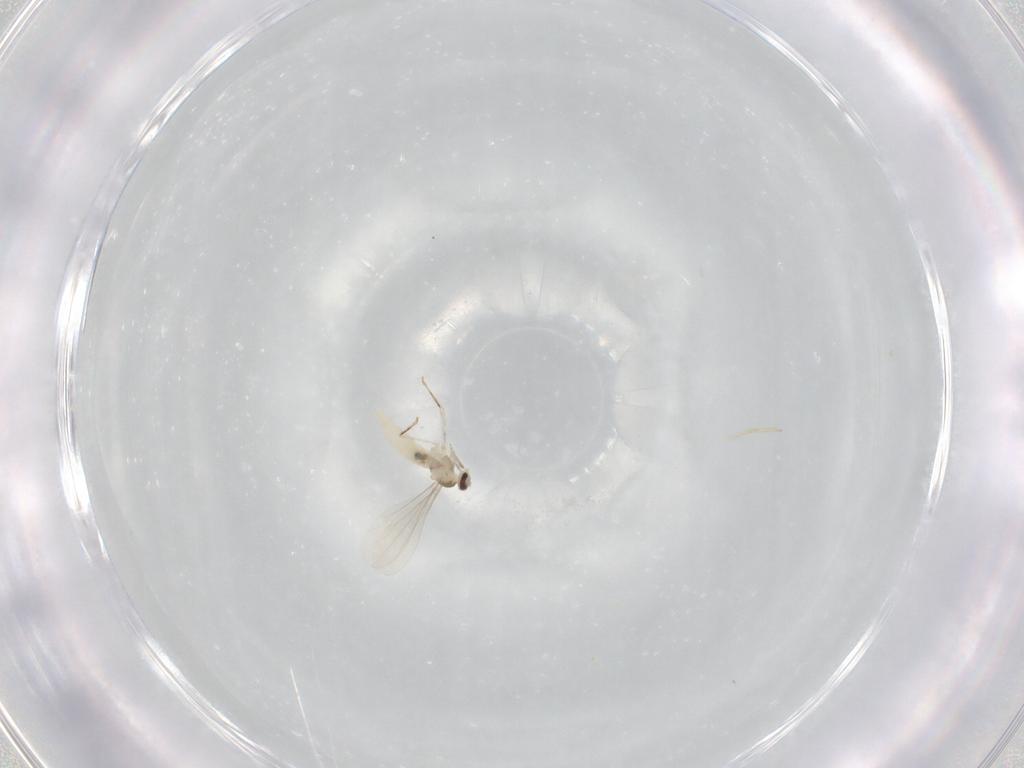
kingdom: Animalia
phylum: Arthropoda
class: Insecta
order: Diptera
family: Cecidomyiidae
